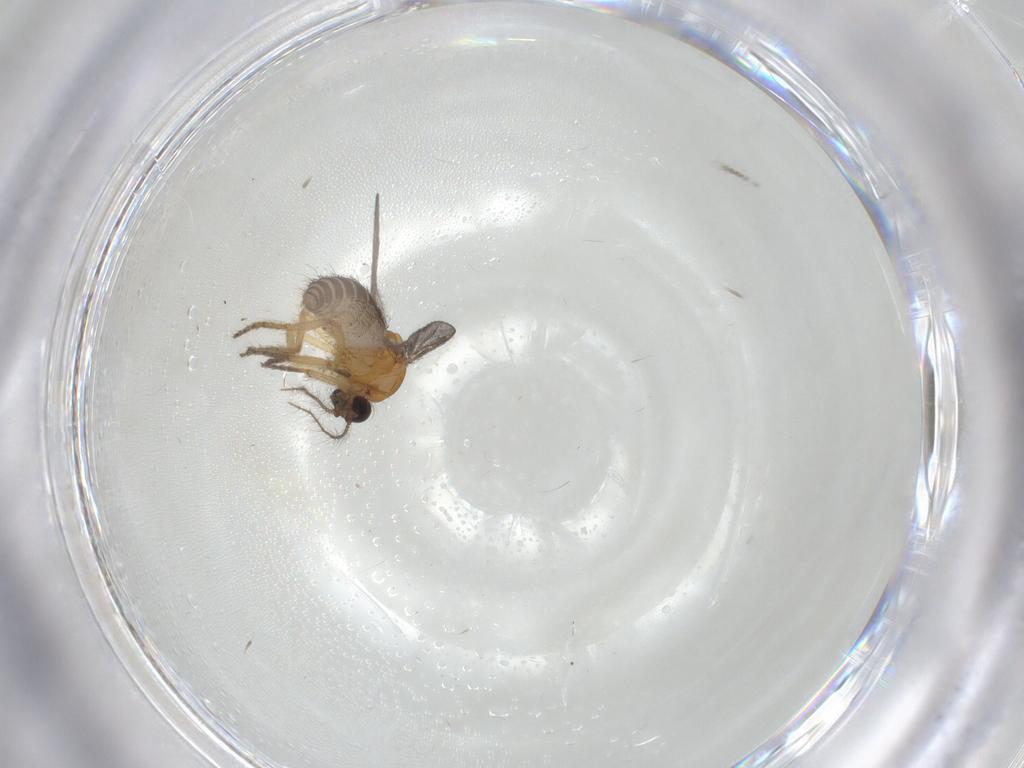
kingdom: Animalia
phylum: Arthropoda
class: Insecta
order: Diptera
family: Ceratopogonidae
